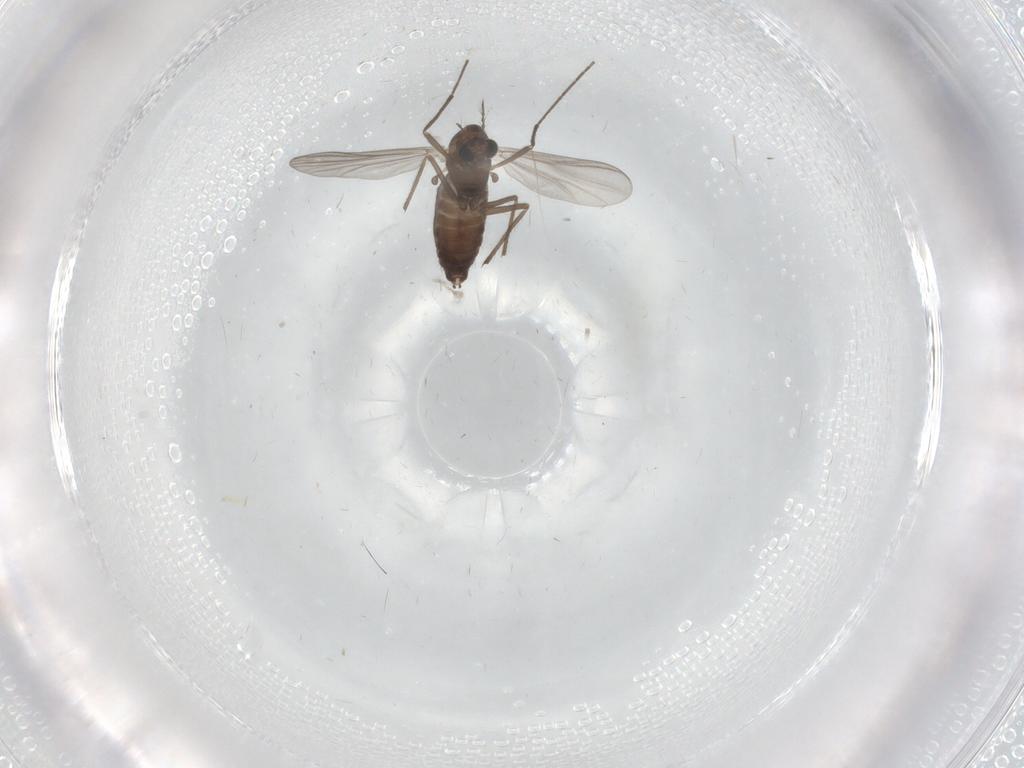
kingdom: Animalia
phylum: Arthropoda
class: Insecta
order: Diptera
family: Chironomidae
